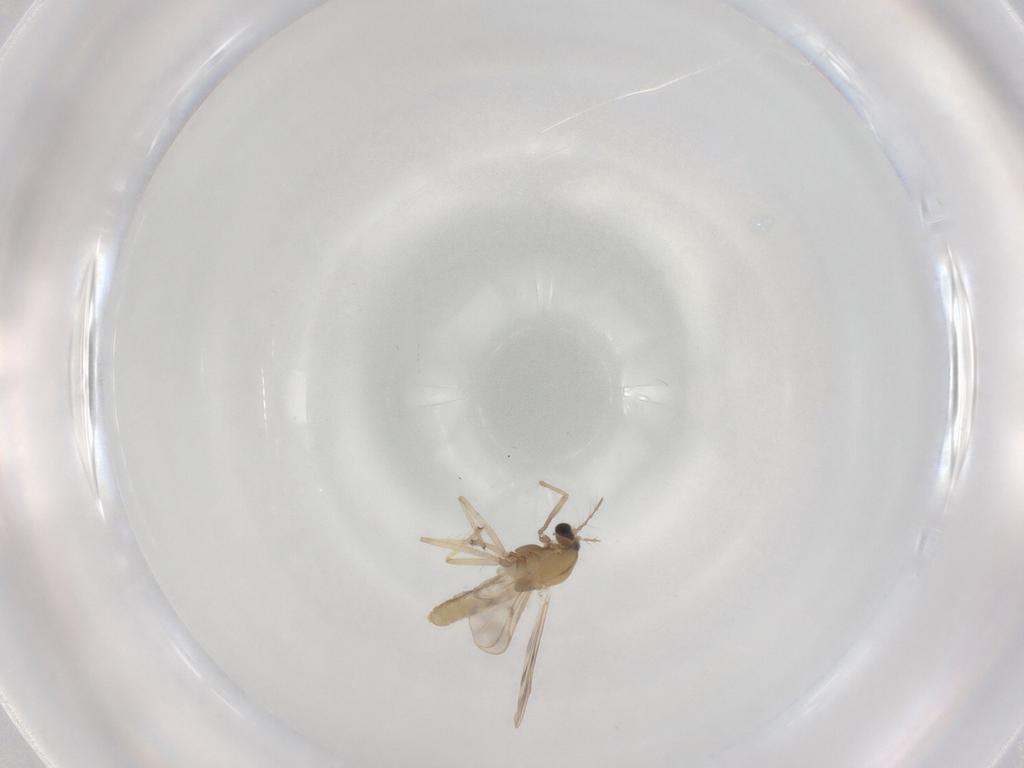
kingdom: Animalia
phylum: Arthropoda
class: Insecta
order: Diptera
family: Chironomidae
